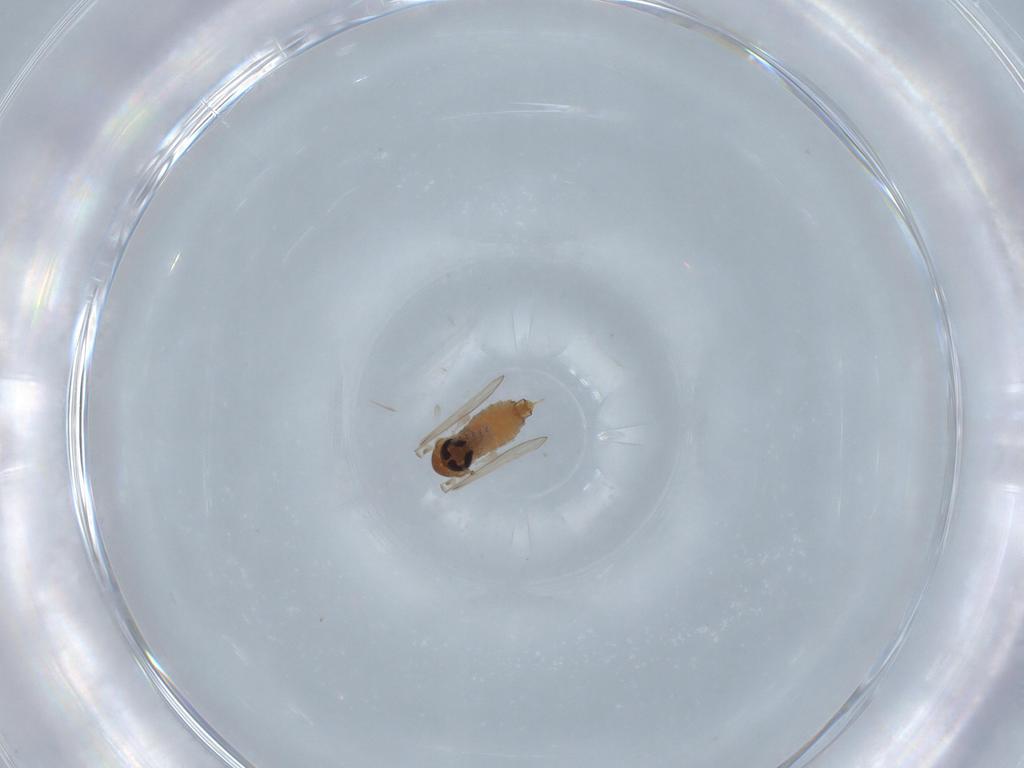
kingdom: Animalia
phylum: Arthropoda
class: Insecta
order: Diptera
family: Psychodidae
